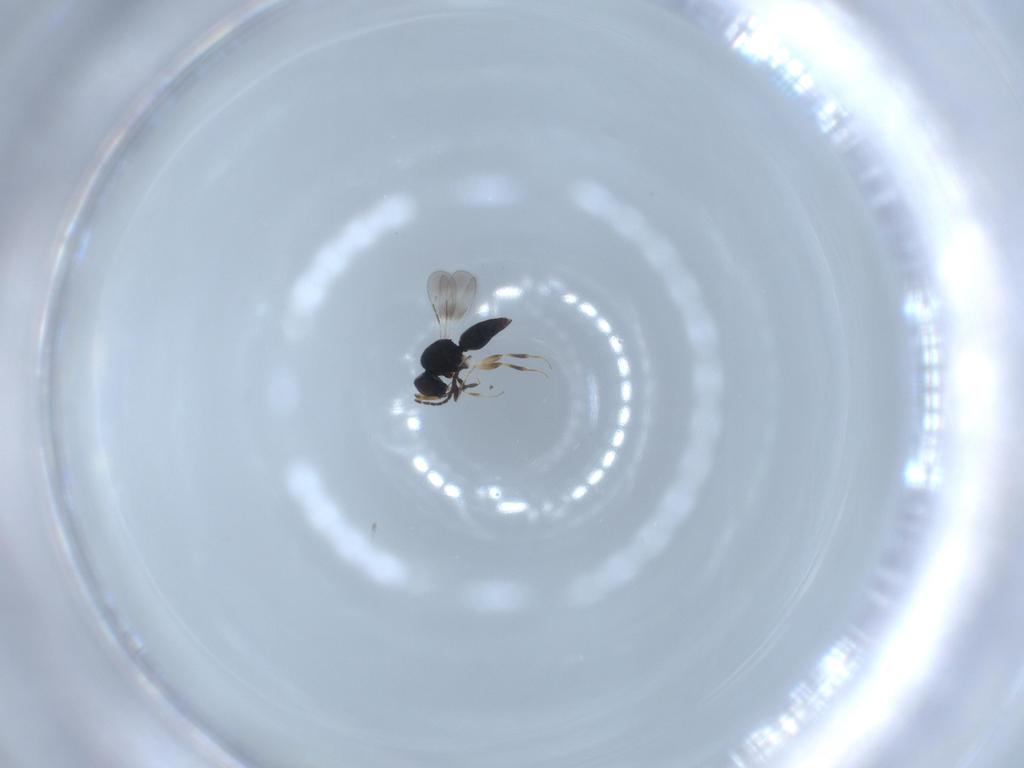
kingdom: Animalia
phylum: Arthropoda
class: Insecta
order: Hymenoptera
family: Ceraphronidae
